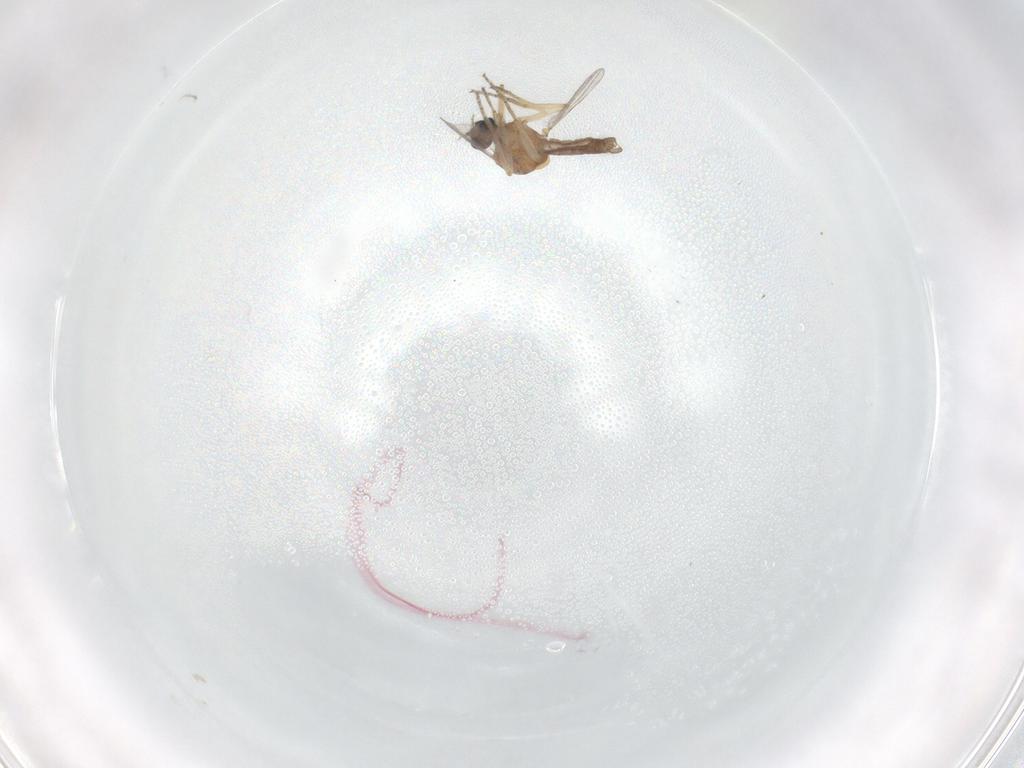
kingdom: Animalia
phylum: Arthropoda
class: Insecta
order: Diptera
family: Ceratopogonidae
